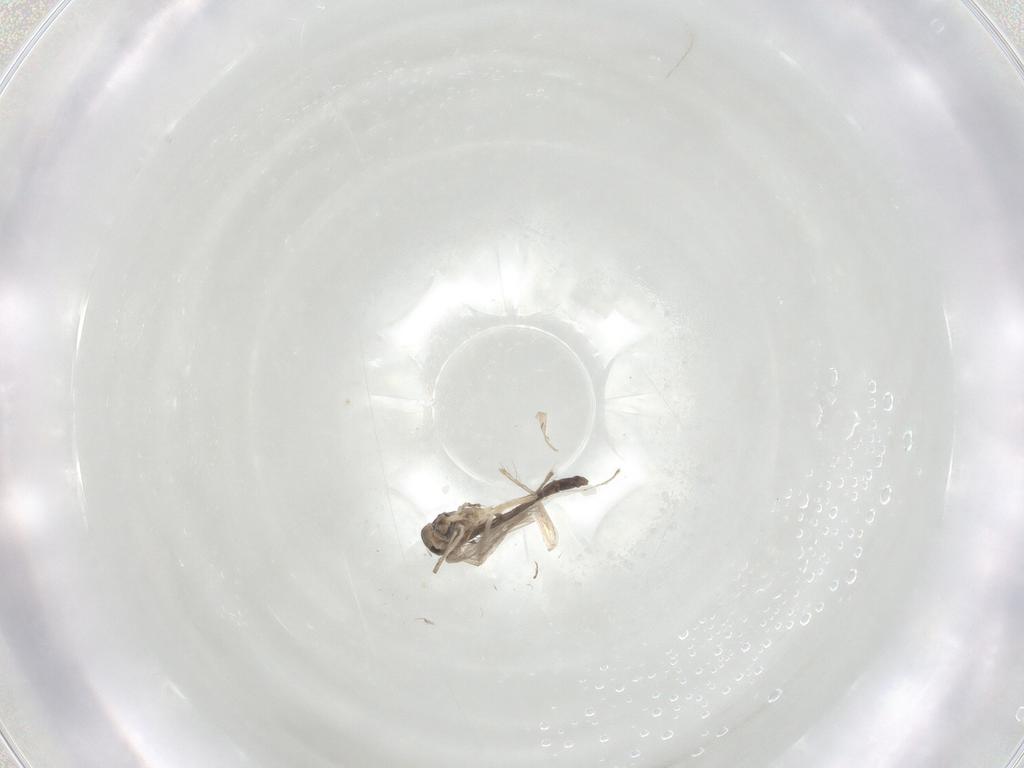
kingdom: Animalia
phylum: Arthropoda
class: Insecta
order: Diptera
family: Chironomidae
